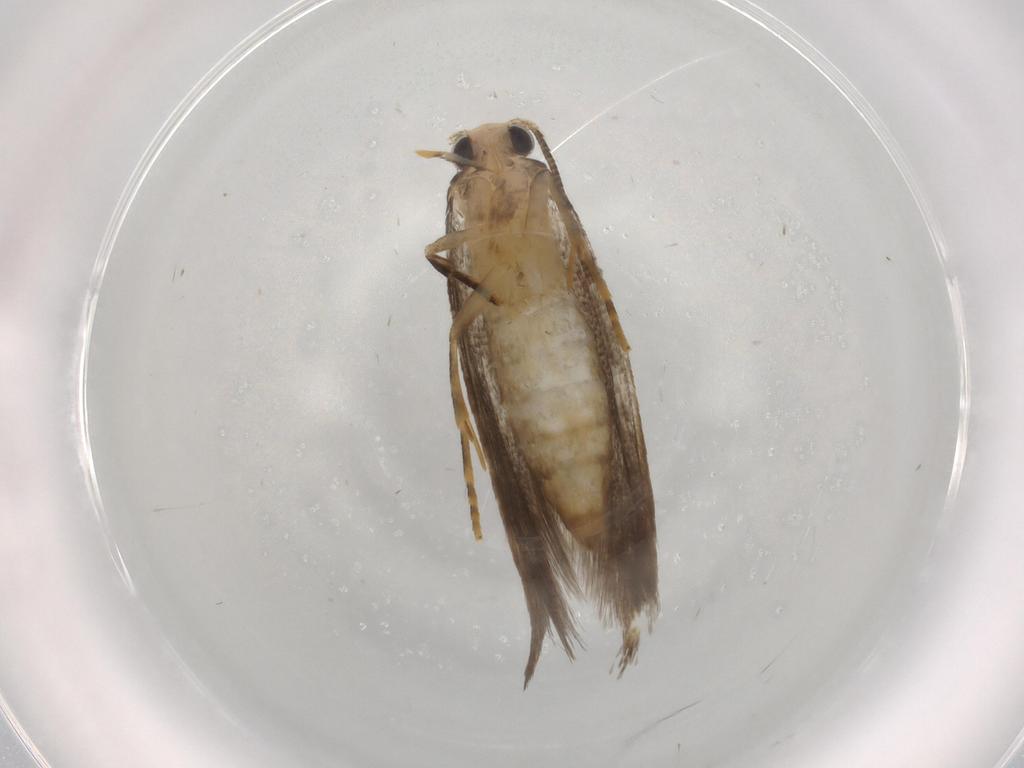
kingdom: Animalia
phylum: Arthropoda
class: Insecta
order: Lepidoptera
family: Tineidae
